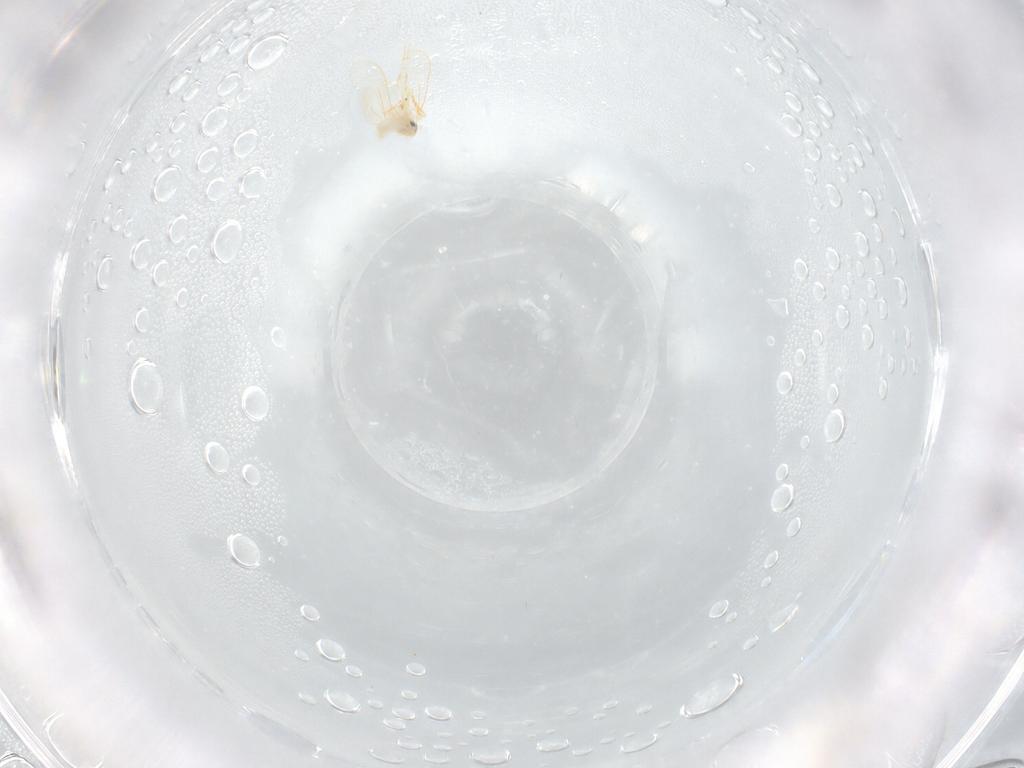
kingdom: Animalia
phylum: Arthropoda
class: Insecta
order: Hemiptera
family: Aleyrodidae
